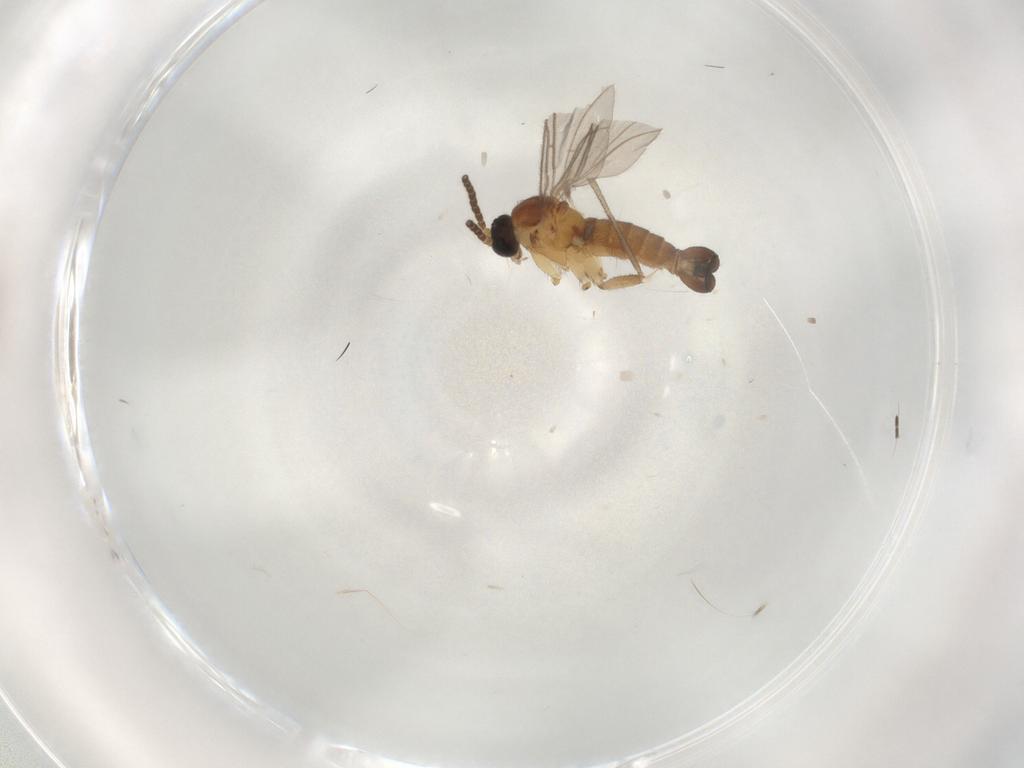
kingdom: Animalia
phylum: Arthropoda
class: Insecta
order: Diptera
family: Sciaridae
